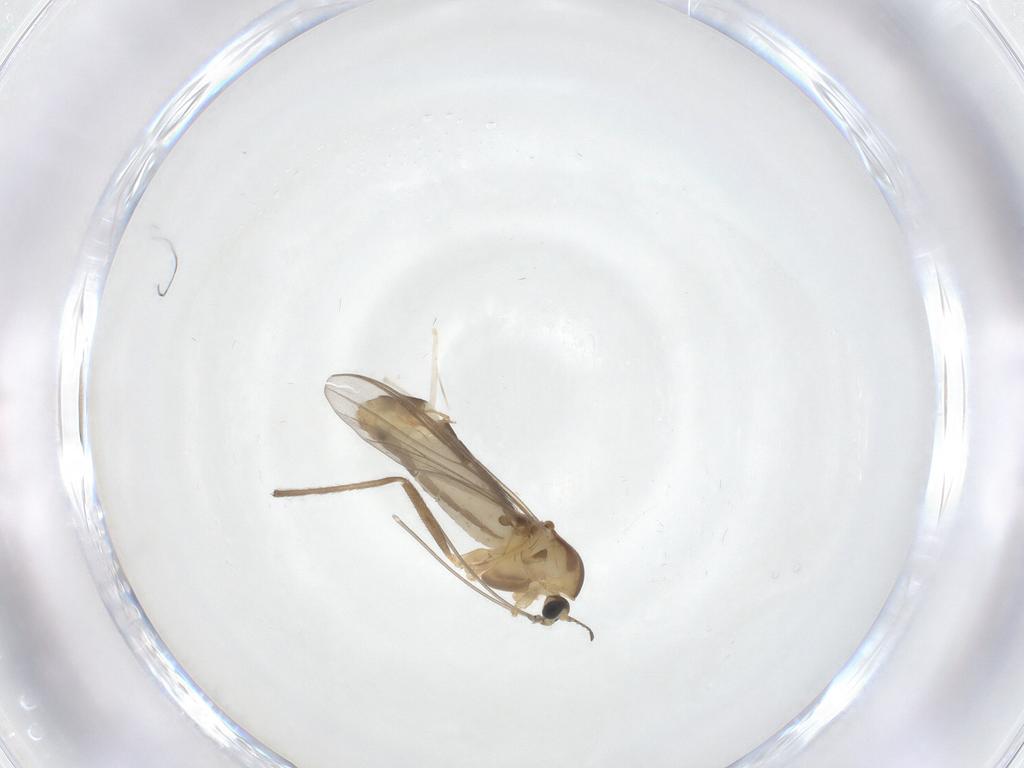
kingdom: Animalia
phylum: Arthropoda
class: Insecta
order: Diptera
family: Chironomidae
